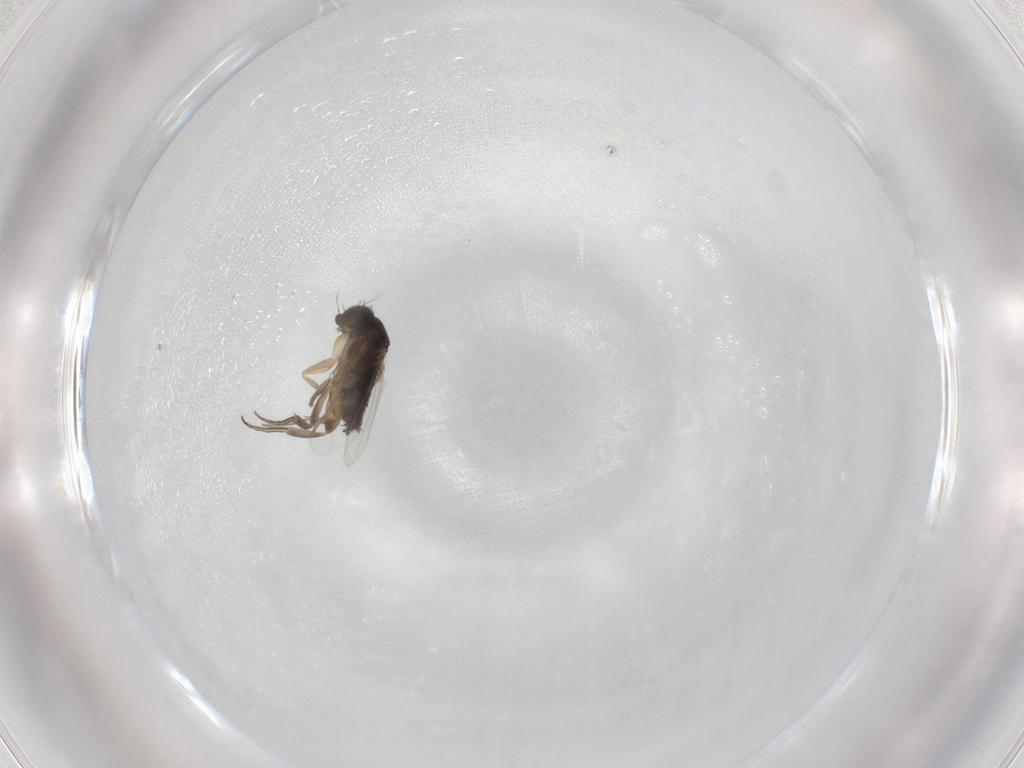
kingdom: Animalia
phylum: Arthropoda
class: Insecta
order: Diptera
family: Phoridae
